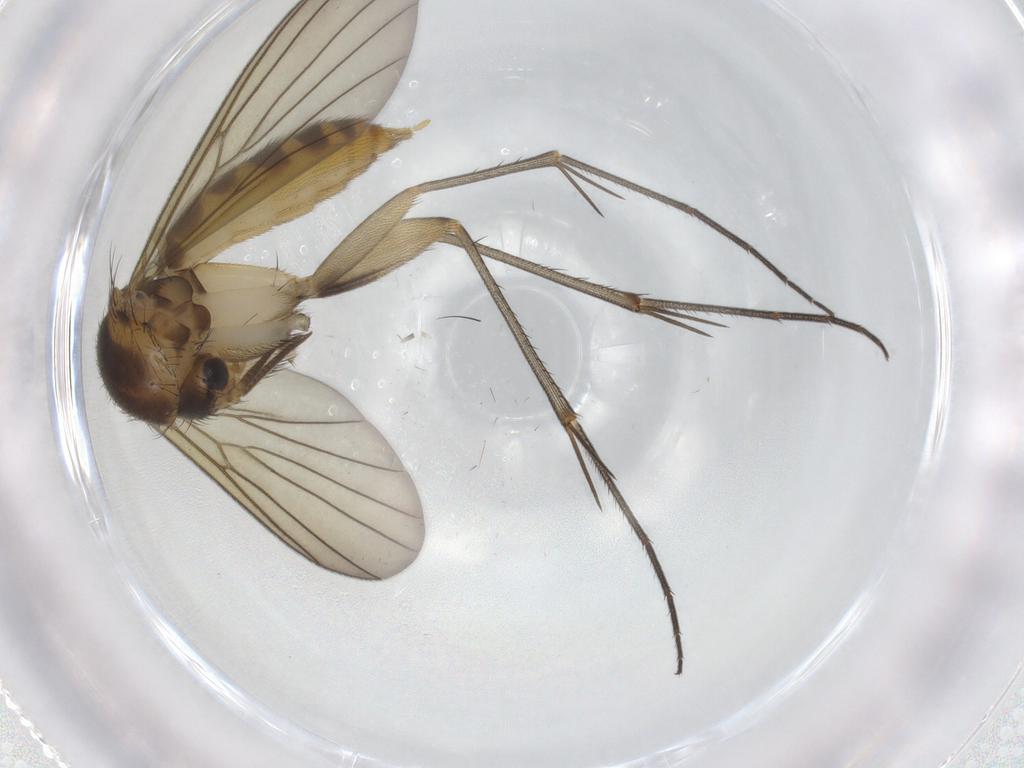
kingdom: Animalia
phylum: Arthropoda
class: Insecta
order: Diptera
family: Mycetophilidae
